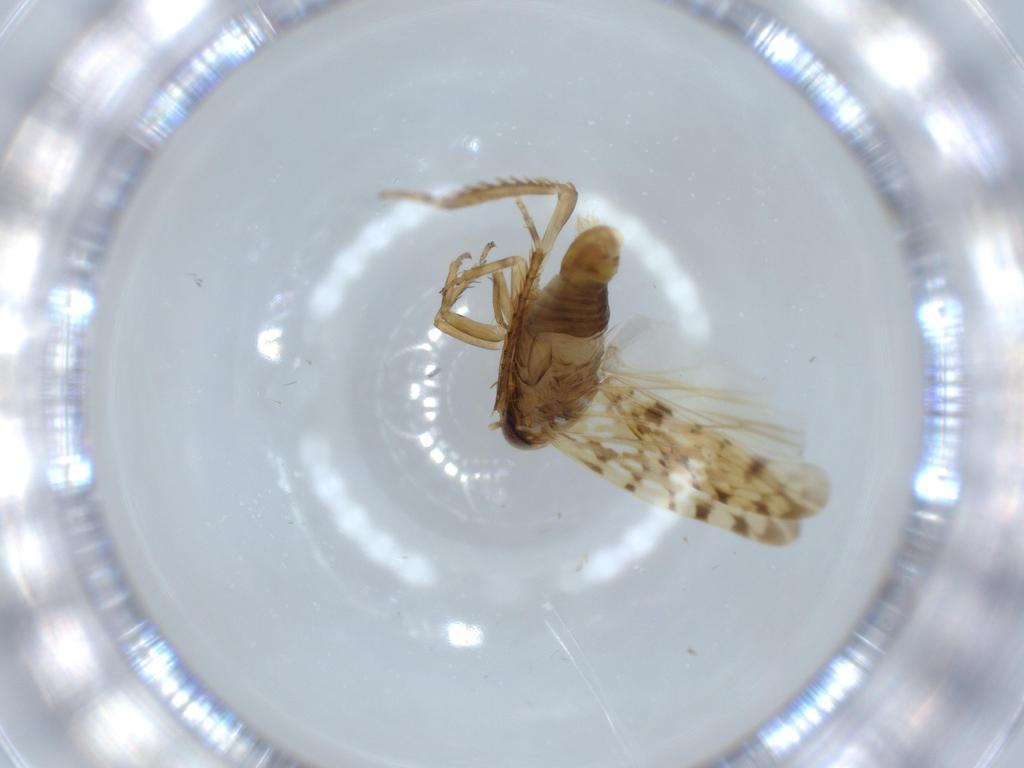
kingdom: Animalia
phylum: Arthropoda
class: Insecta
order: Hemiptera
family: Cicadellidae
